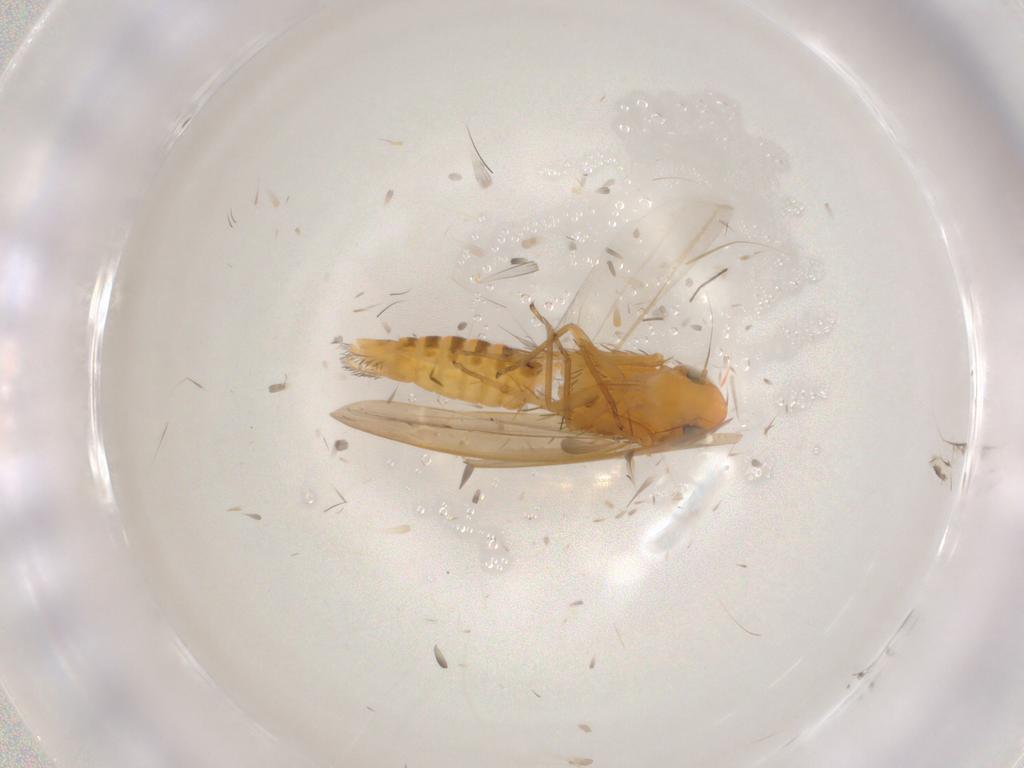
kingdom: Animalia
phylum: Arthropoda
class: Insecta
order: Hemiptera
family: Cicadellidae
